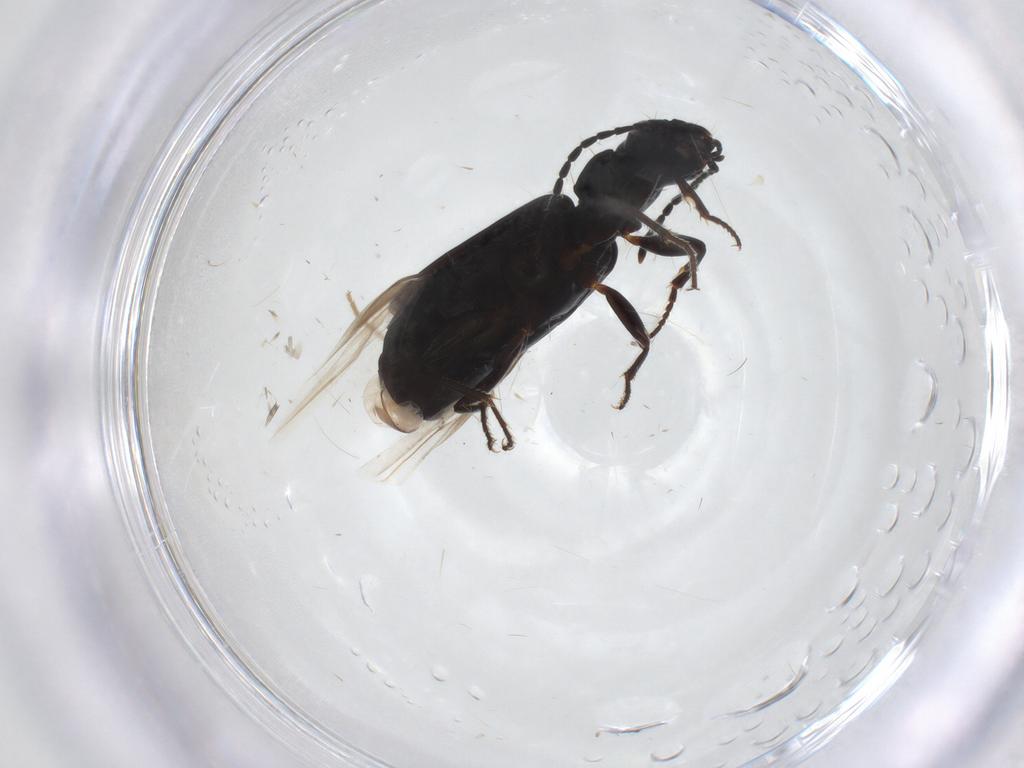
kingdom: Animalia
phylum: Arthropoda
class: Insecta
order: Coleoptera
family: Carabidae
